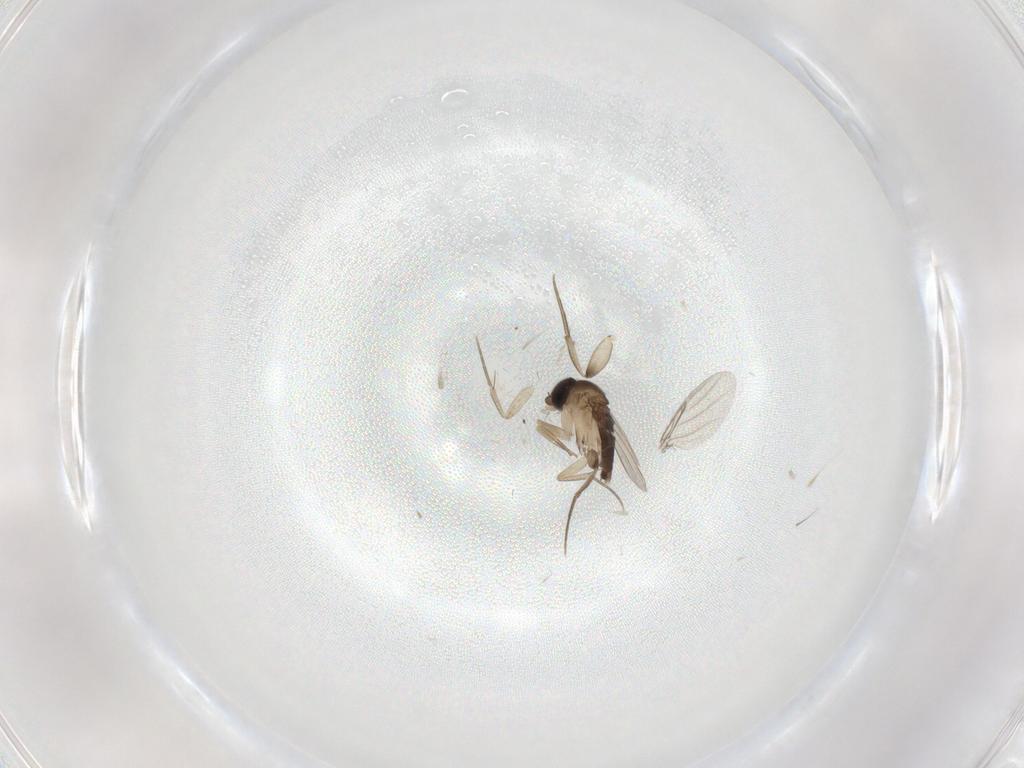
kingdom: Animalia
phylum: Arthropoda
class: Insecta
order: Diptera
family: Phoridae
